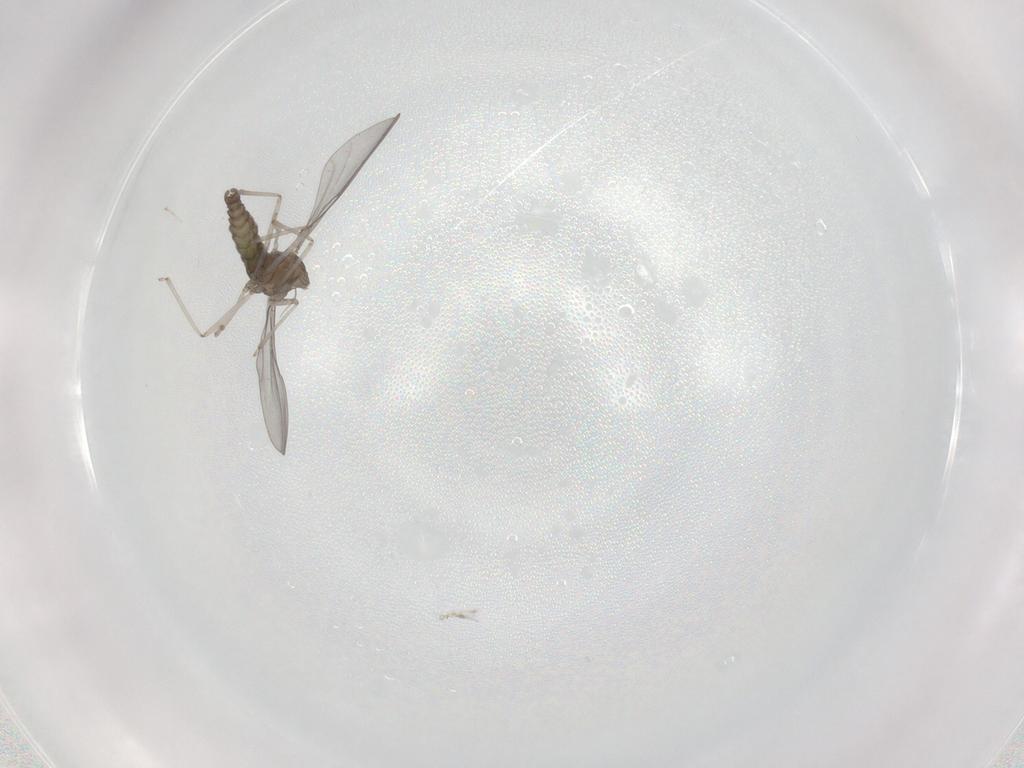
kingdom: Animalia
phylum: Arthropoda
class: Insecta
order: Diptera
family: Cecidomyiidae
